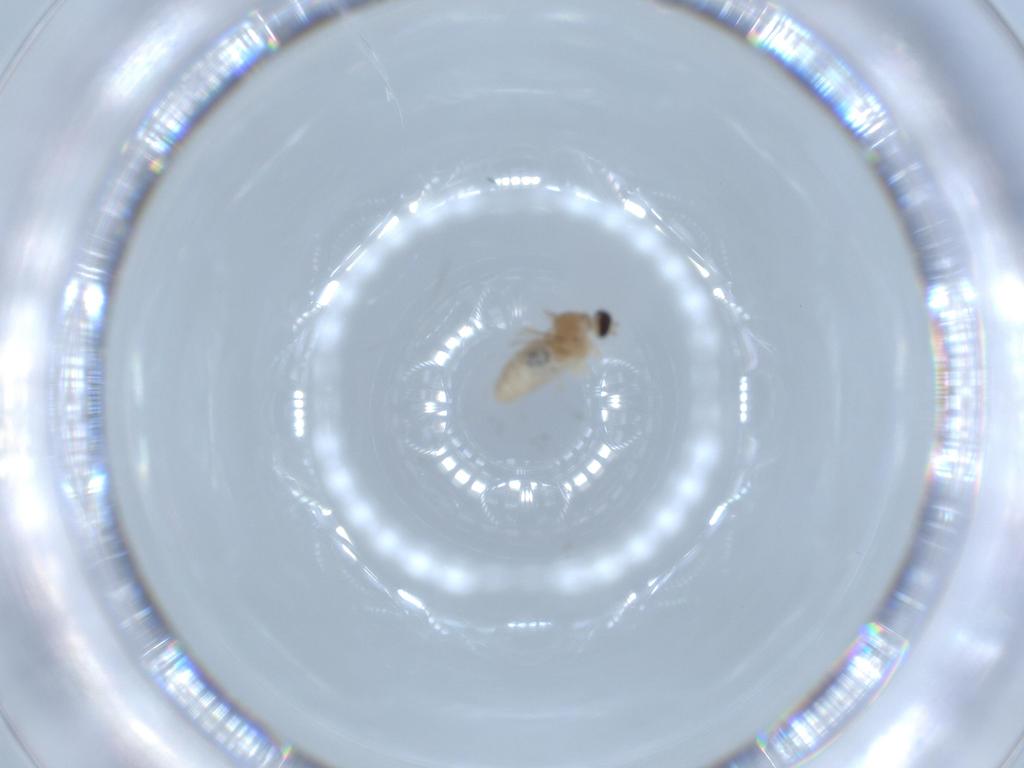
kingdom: Animalia
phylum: Arthropoda
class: Insecta
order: Diptera
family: Cecidomyiidae
